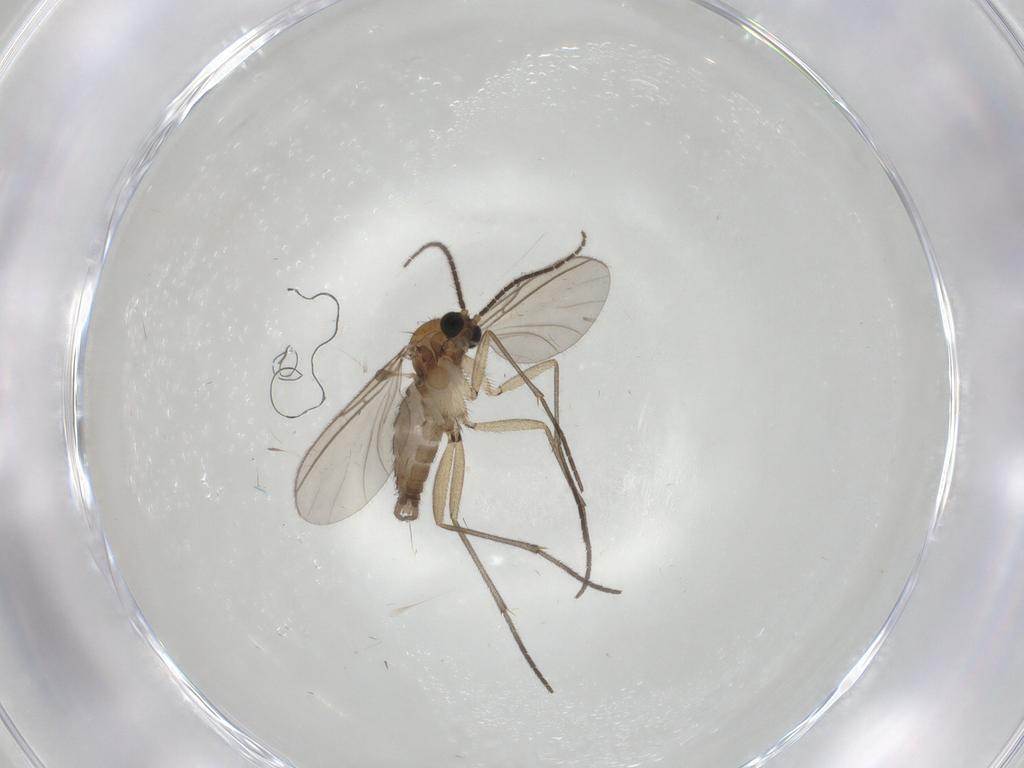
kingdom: Animalia
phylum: Arthropoda
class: Insecta
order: Diptera
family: Sciaridae
